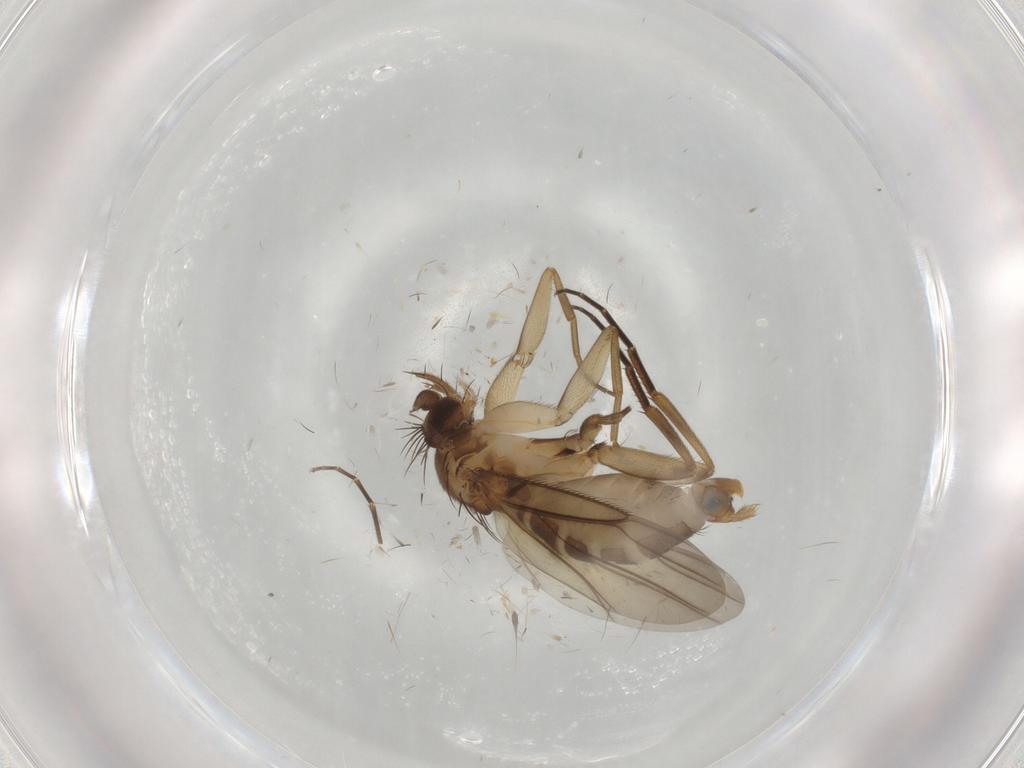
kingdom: Animalia
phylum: Arthropoda
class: Insecta
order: Diptera
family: Phoridae
